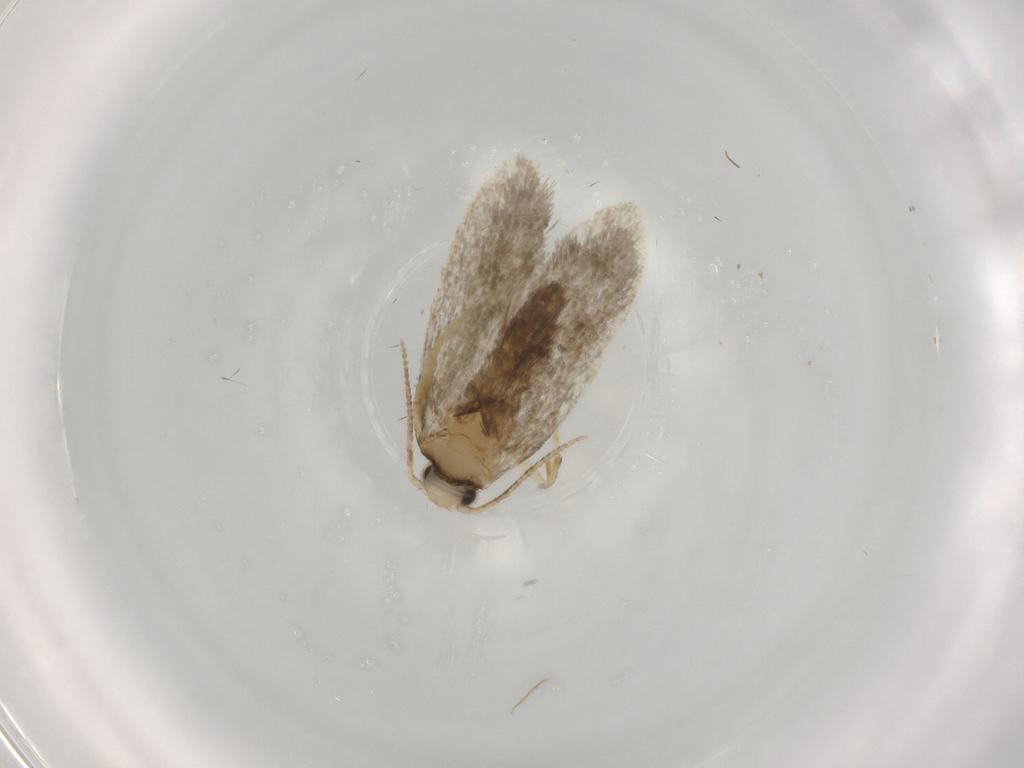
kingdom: Animalia
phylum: Arthropoda
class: Insecta
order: Lepidoptera
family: Psychidae
